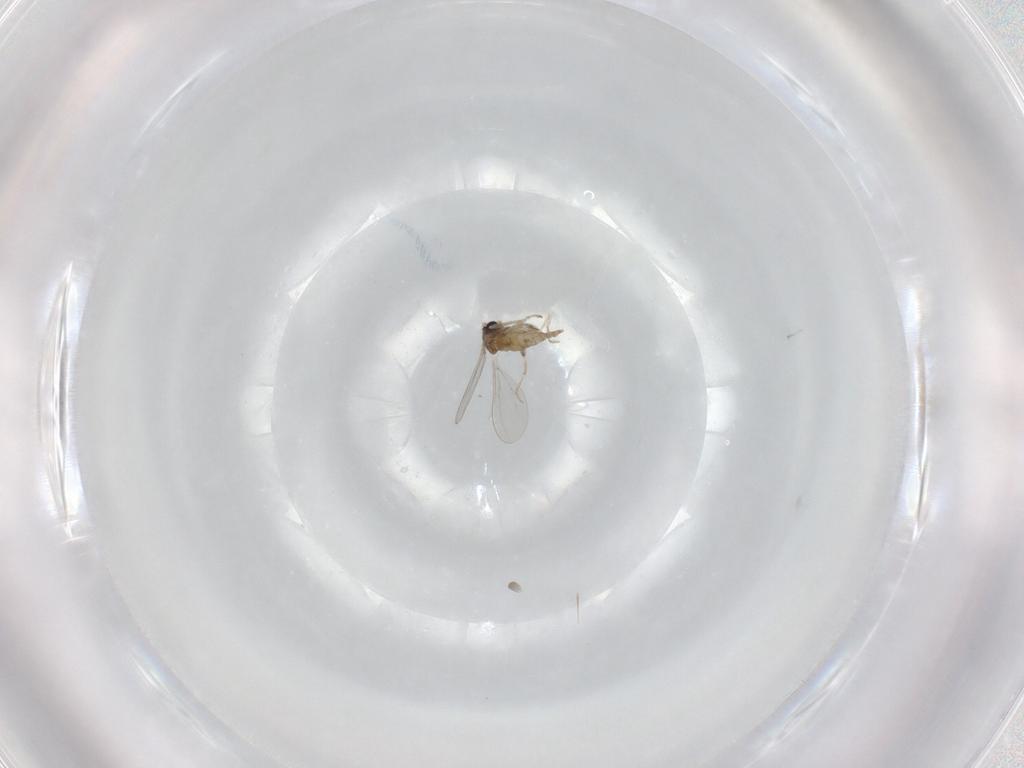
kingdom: Animalia
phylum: Arthropoda
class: Insecta
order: Diptera
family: Cecidomyiidae
